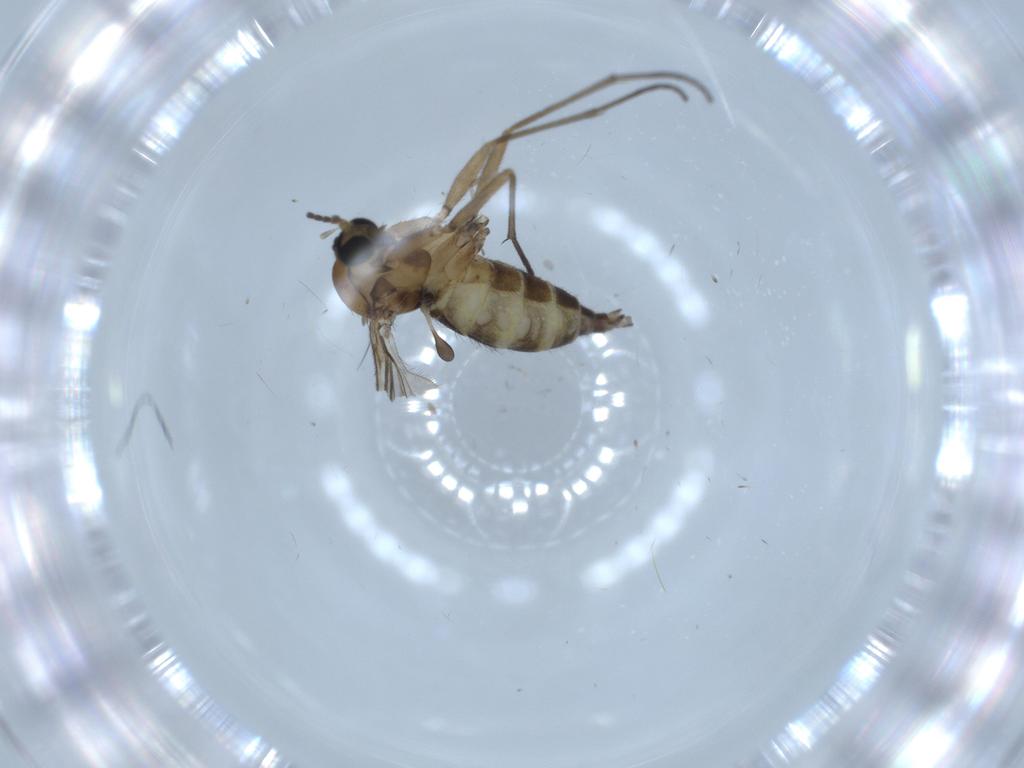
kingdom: Animalia
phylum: Arthropoda
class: Insecta
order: Diptera
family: Sciaridae
